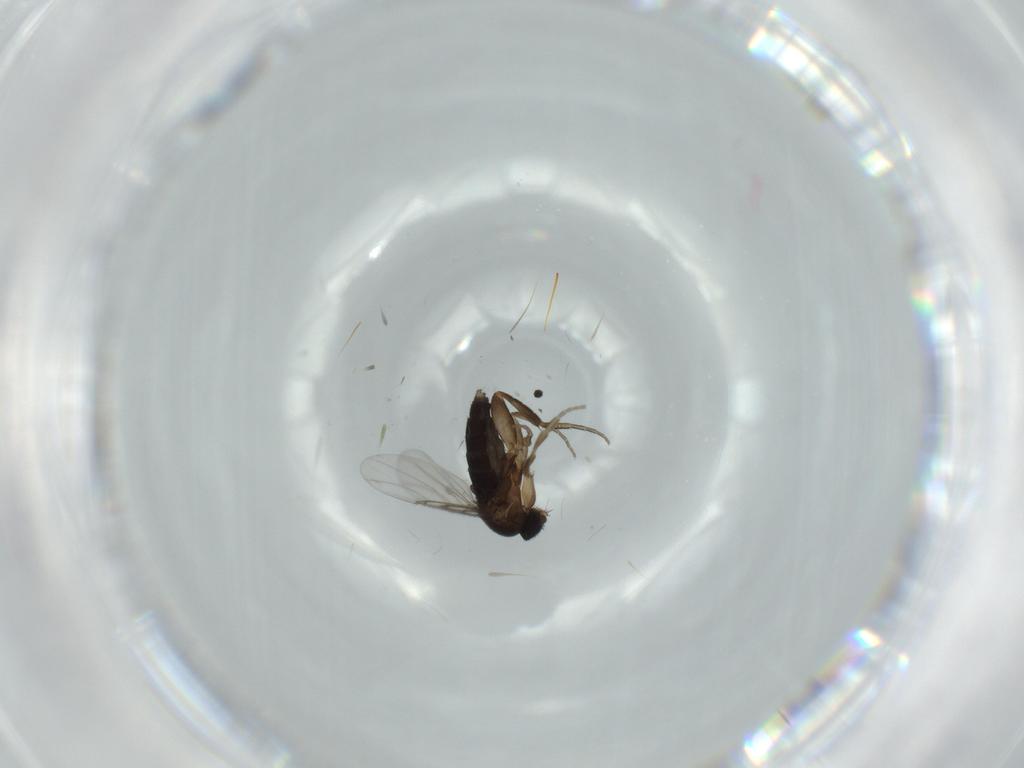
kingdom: Animalia
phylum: Arthropoda
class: Insecta
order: Diptera
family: Phoridae
